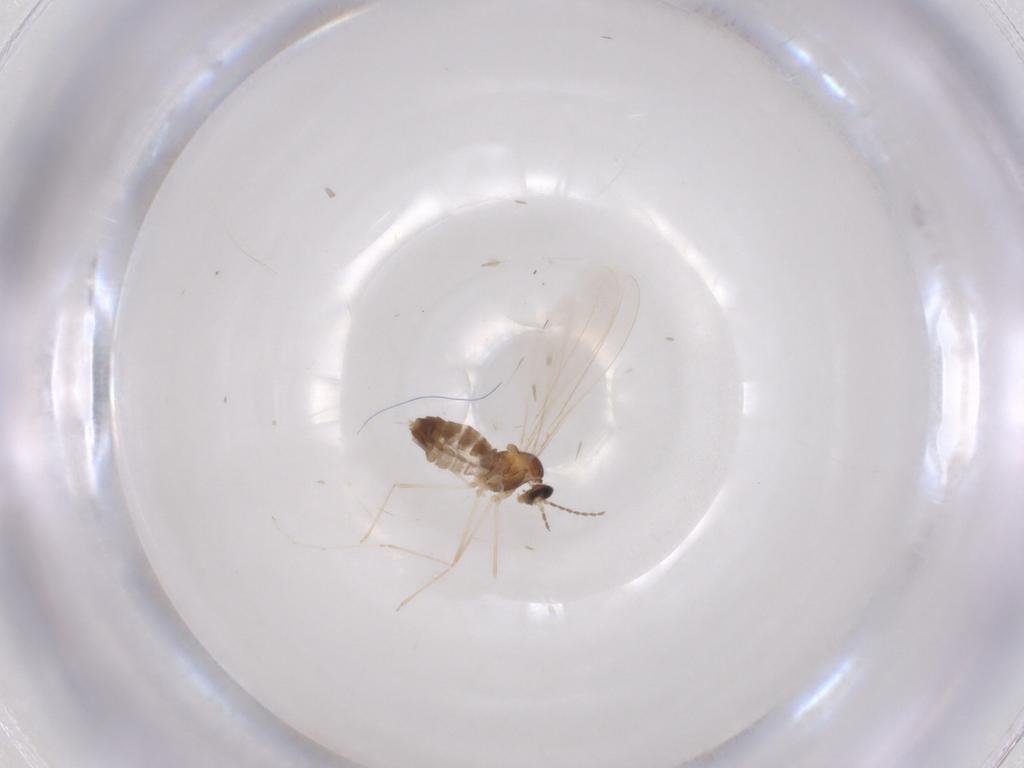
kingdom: Animalia
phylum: Arthropoda
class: Insecta
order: Diptera
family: Cecidomyiidae
